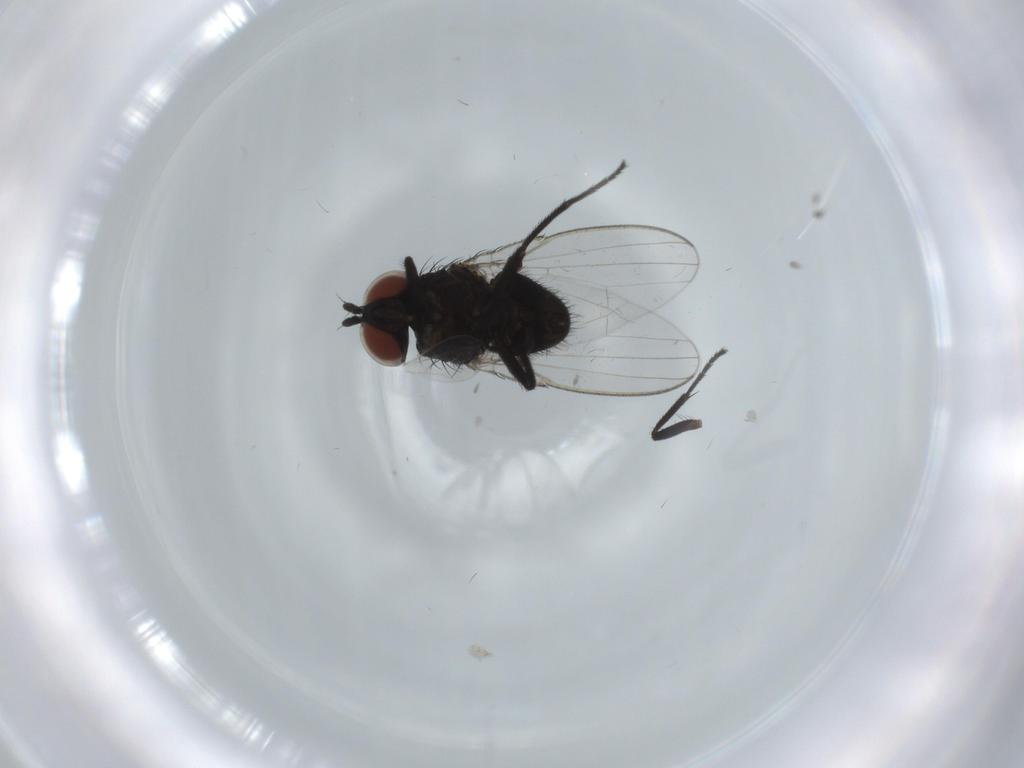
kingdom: Animalia
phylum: Arthropoda
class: Insecta
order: Diptera
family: Milichiidae
